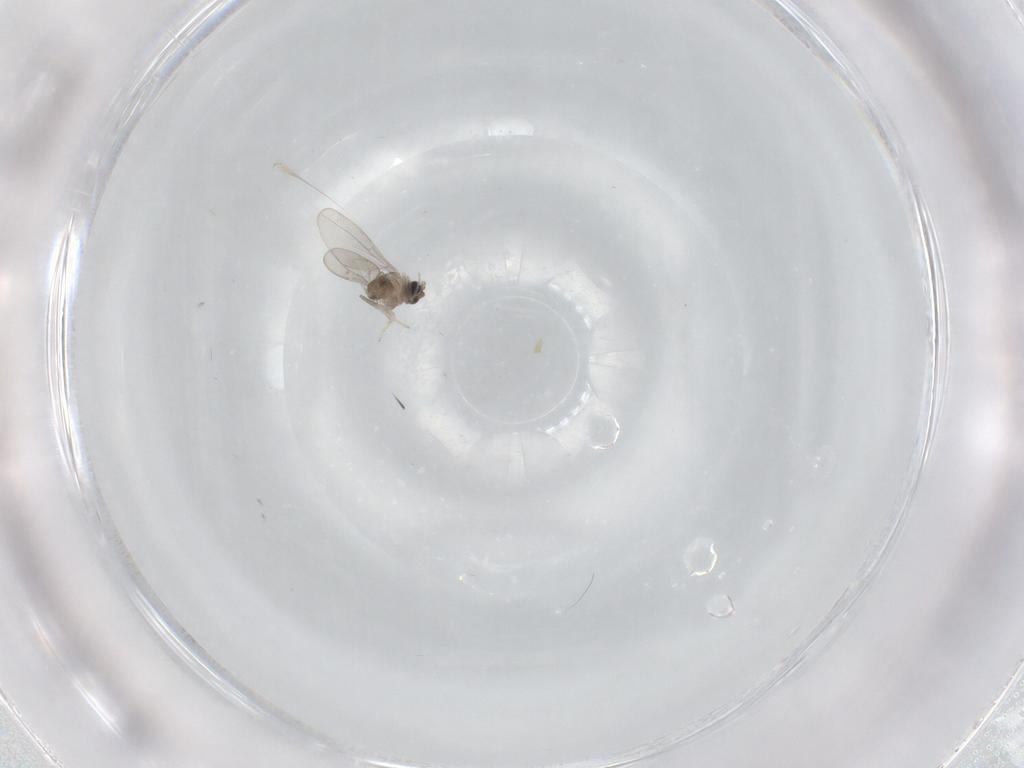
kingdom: Animalia
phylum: Arthropoda
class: Insecta
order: Diptera
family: Cecidomyiidae
